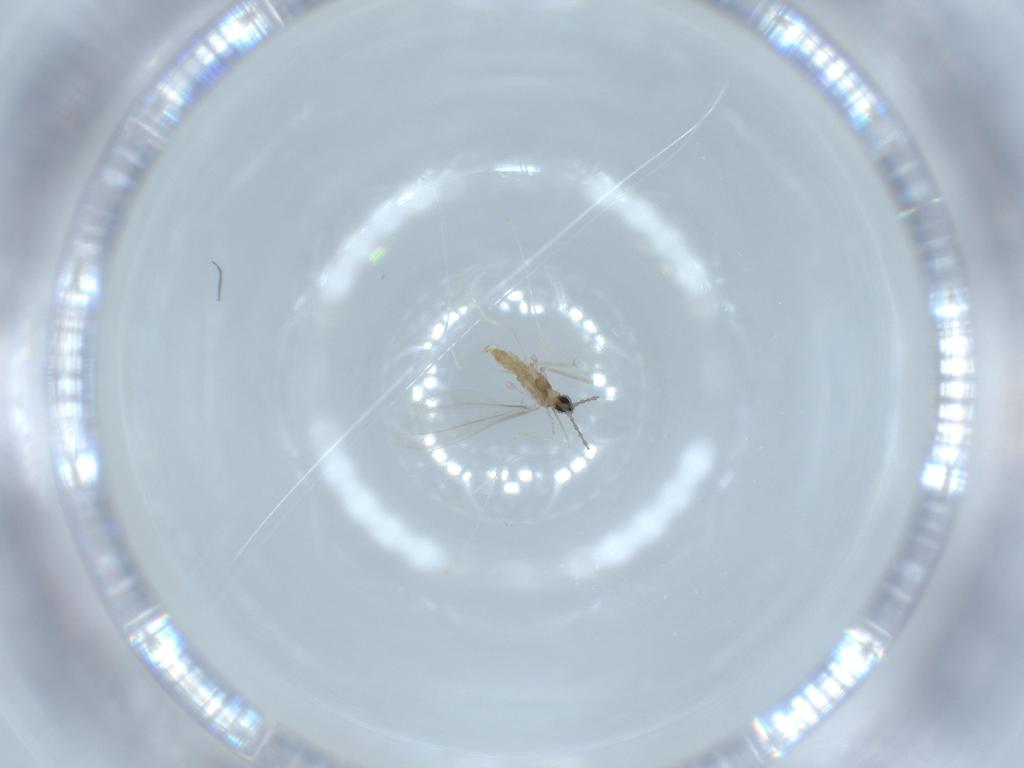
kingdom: Animalia
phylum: Arthropoda
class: Insecta
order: Diptera
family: Cecidomyiidae
